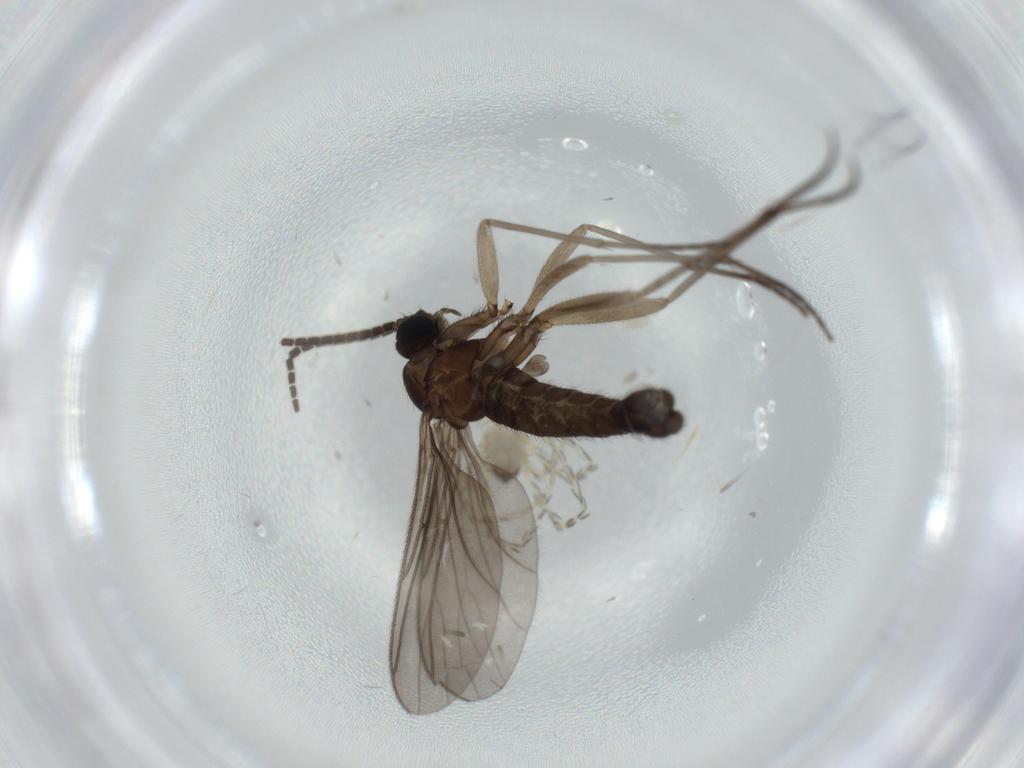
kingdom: Animalia
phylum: Arthropoda
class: Insecta
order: Diptera
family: Sciaridae
